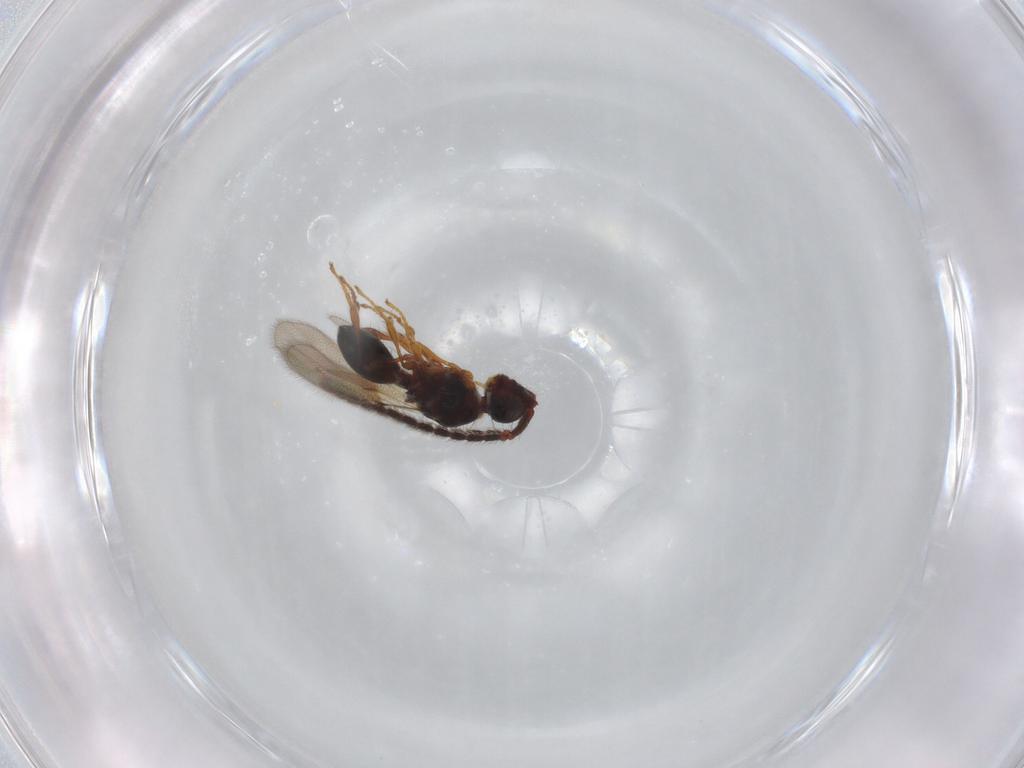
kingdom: Animalia
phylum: Arthropoda
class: Insecta
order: Hymenoptera
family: Diapriidae
